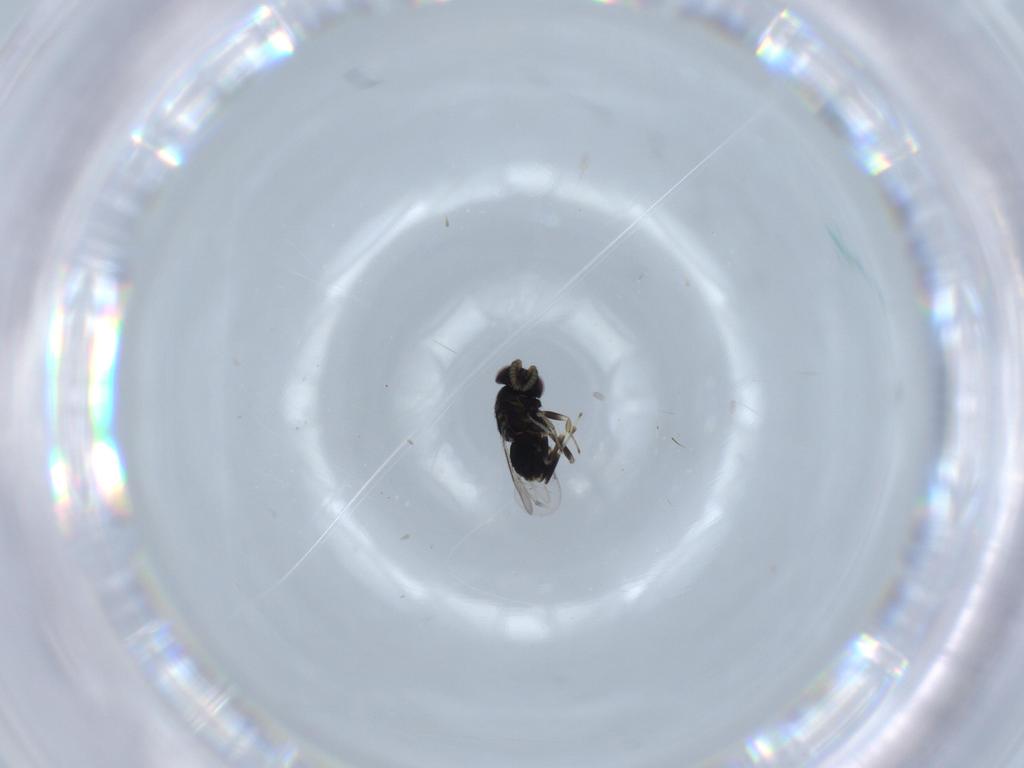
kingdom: Animalia
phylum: Arthropoda
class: Insecta
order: Hymenoptera
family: Aphelinidae
